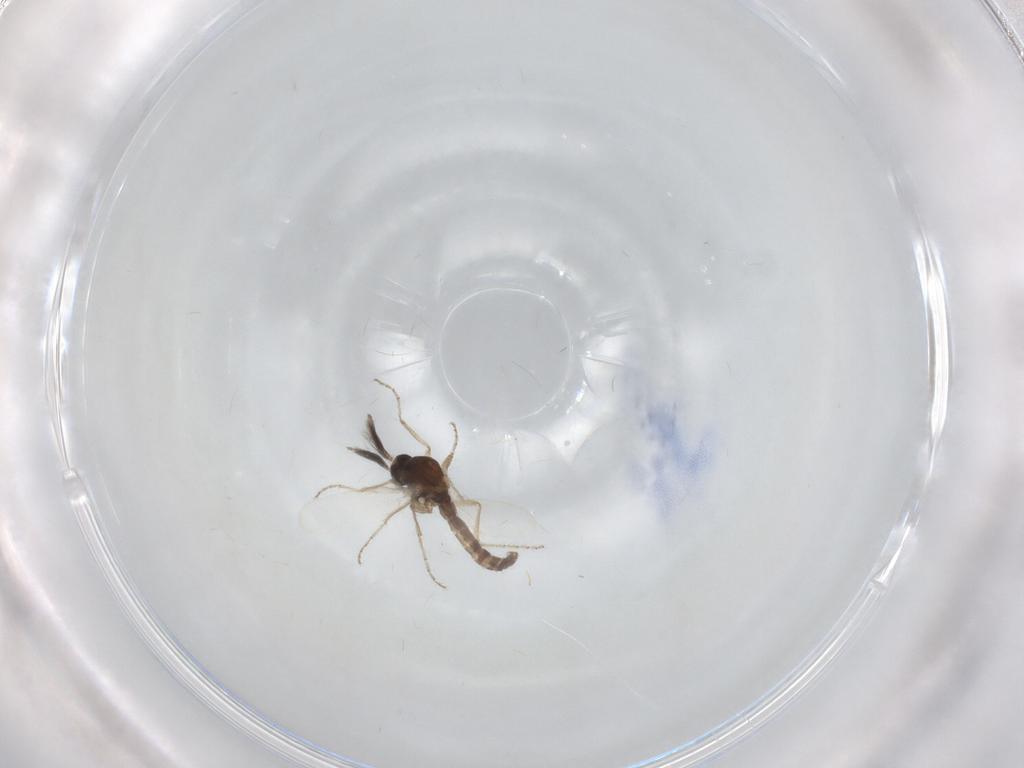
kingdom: Animalia
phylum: Arthropoda
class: Insecta
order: Diptera
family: Ceratopogonidae
